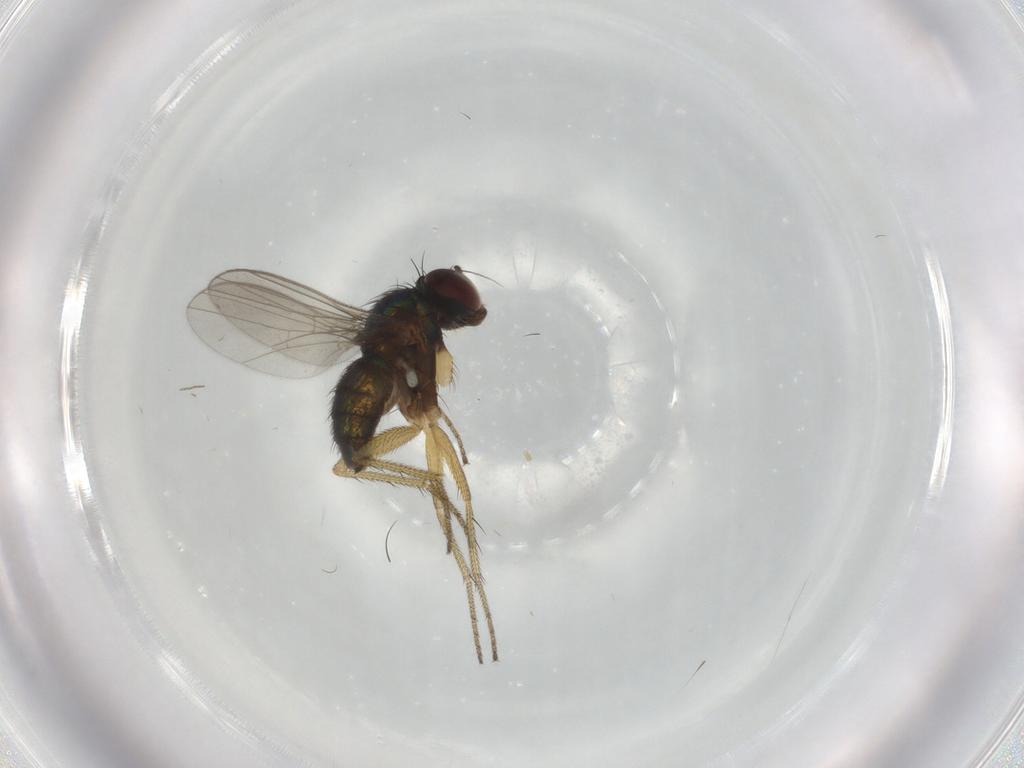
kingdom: Animalia
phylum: Arthropoda
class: Insecta
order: Diptera
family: Dolichopodidae
